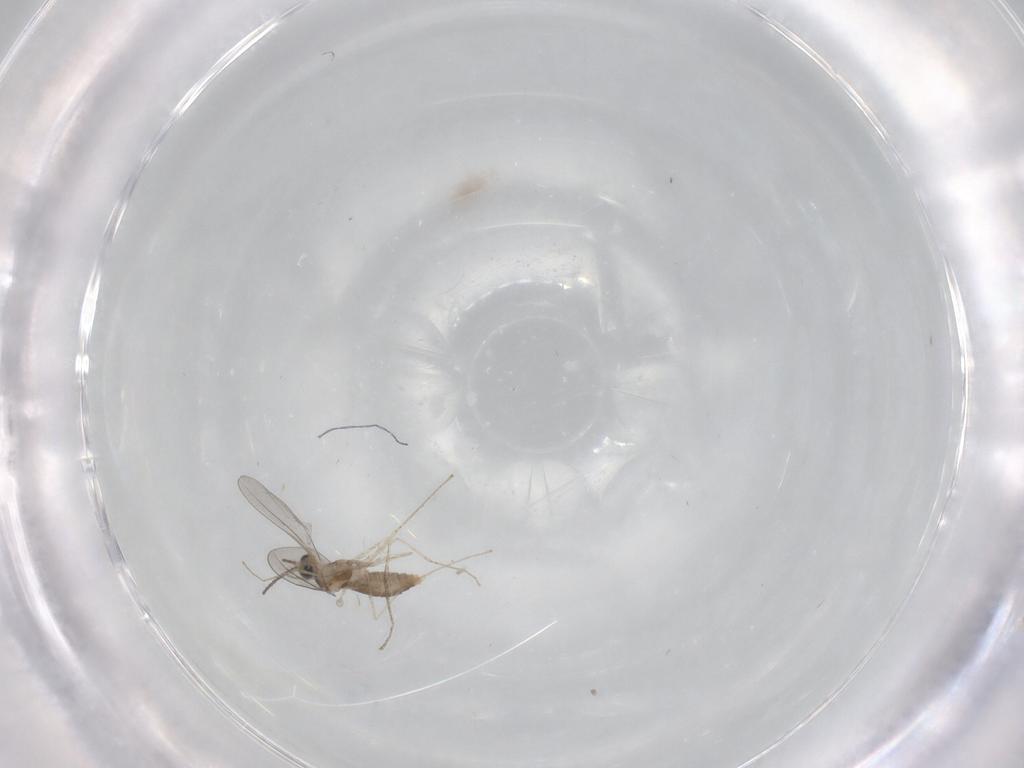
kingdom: Animalia
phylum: Arthropoda
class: Insecta
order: Diptera
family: Cecidomyiidae
